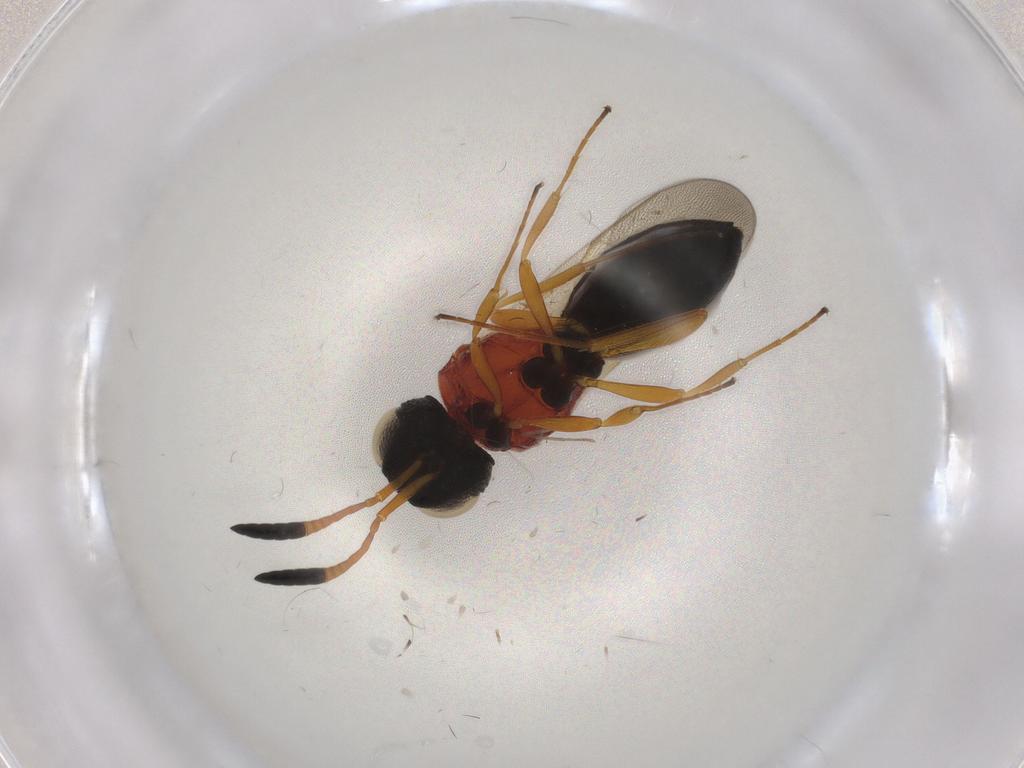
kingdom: Animalia
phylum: Arthropoda
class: Insecta
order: Hymenoptera
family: Scelionidae
